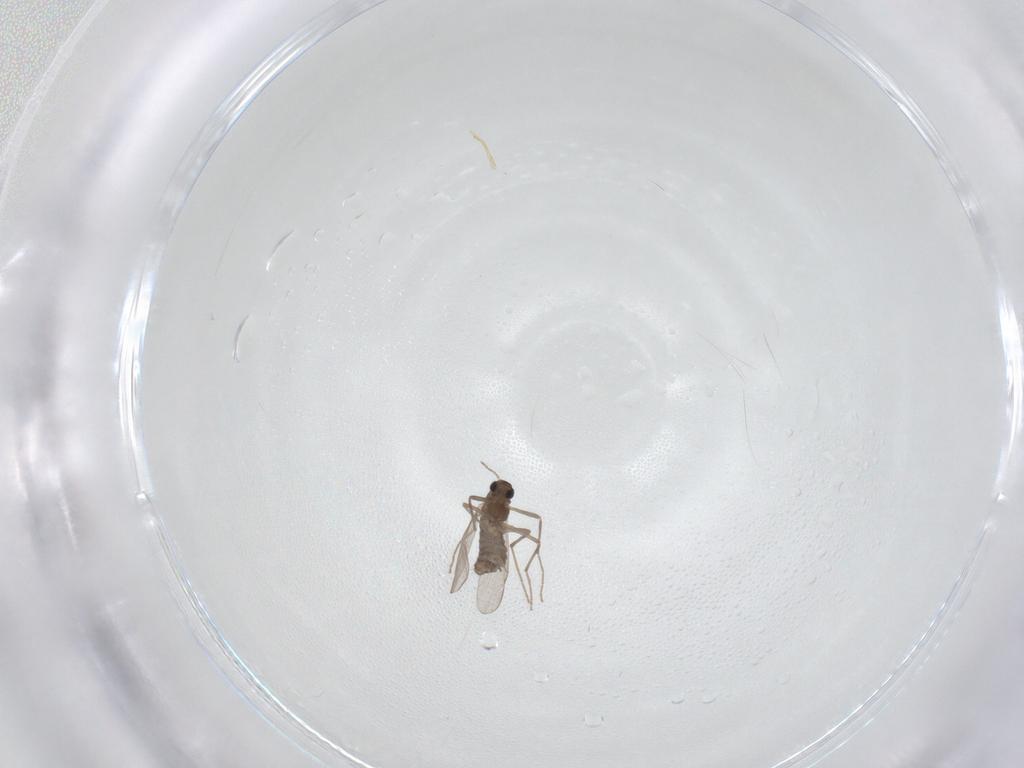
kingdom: Animalia
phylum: Arthropoda
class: Insecta
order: Diptera
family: Chironomidae
